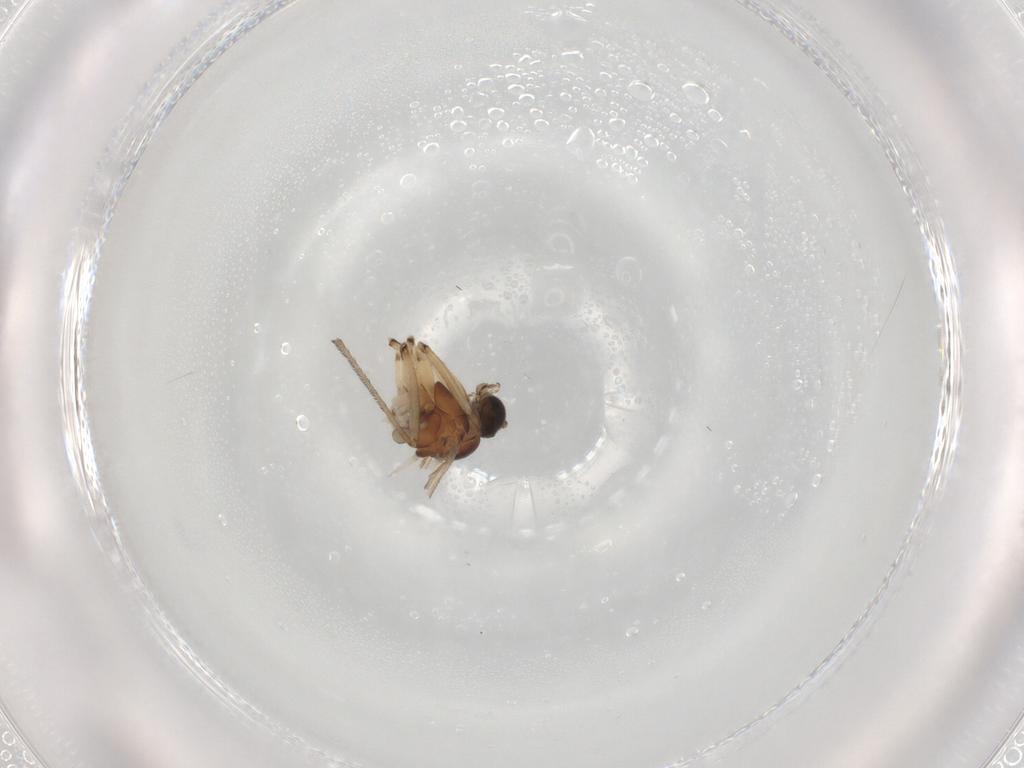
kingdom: Animalia
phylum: Arthropoda
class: Insecta
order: Diptera
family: Sciaridae
